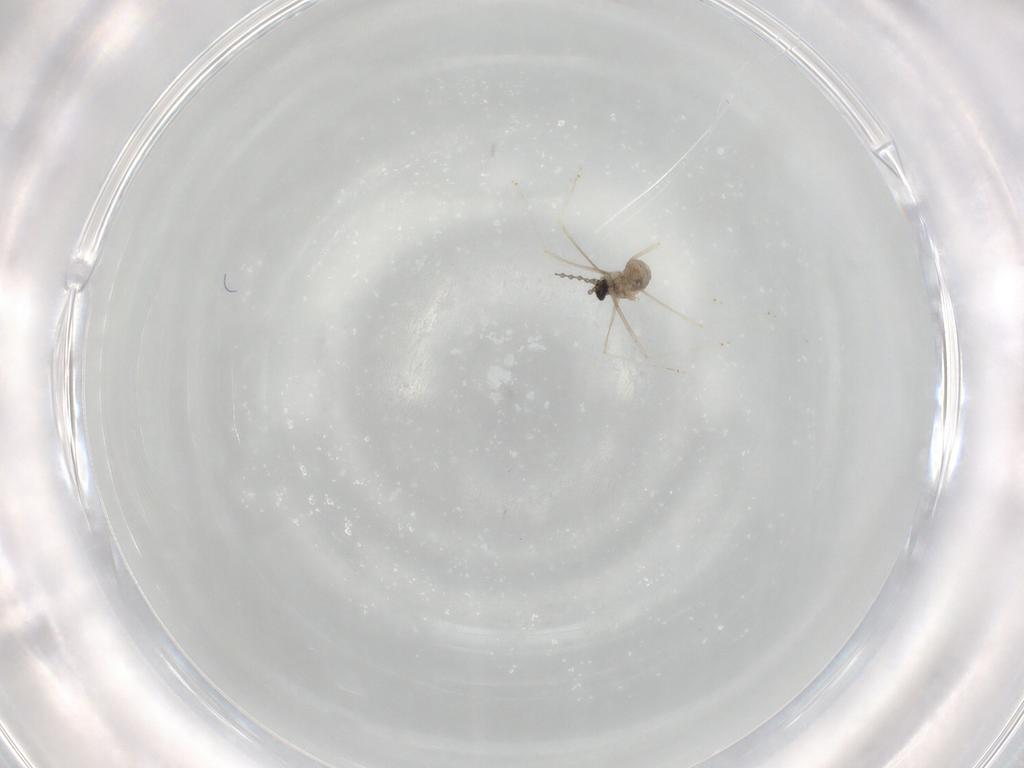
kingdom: Animalia
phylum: Arthropoda
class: Insecta
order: Diptera
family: Cecidomyiidae
